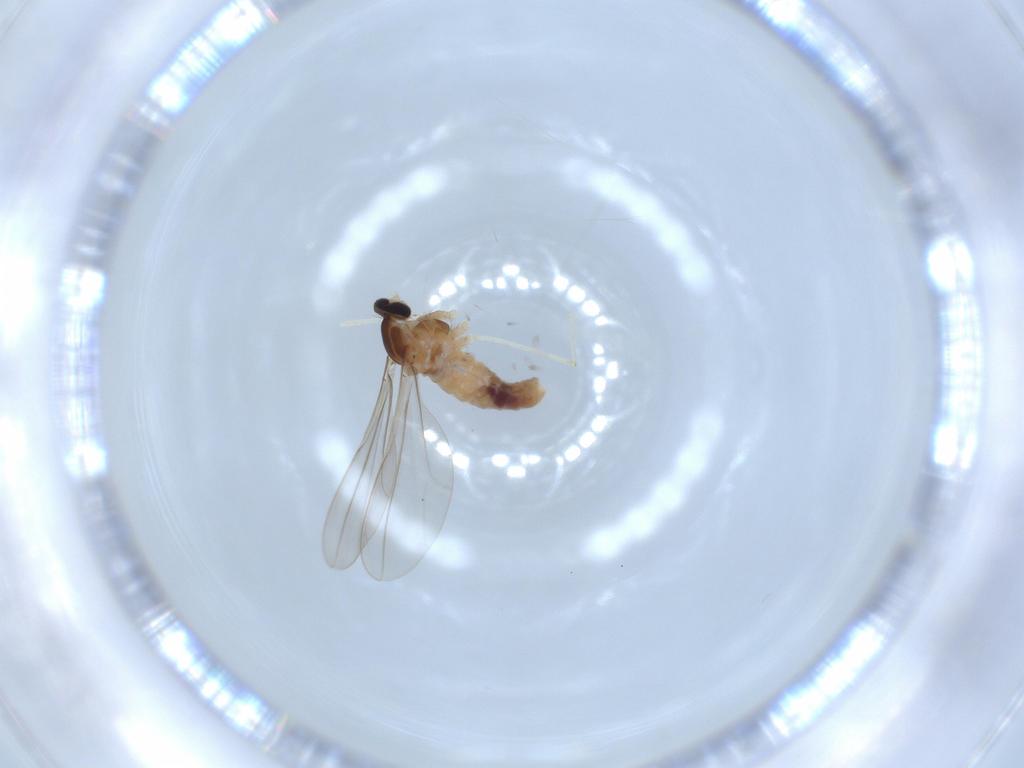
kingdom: Animalia
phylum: Arthropoda
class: Insecta
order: Diptera
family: Cecidomyiidae
